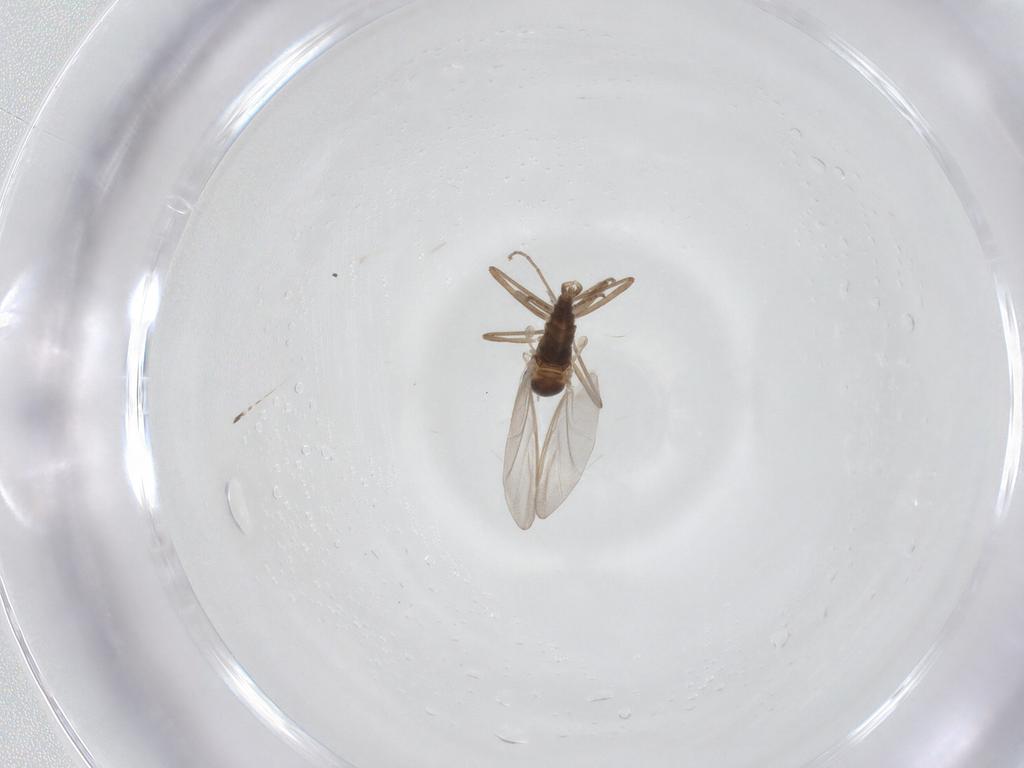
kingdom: Animalia
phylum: Arthropoda
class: Insecta
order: Diptera
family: Cecidomyiidae
